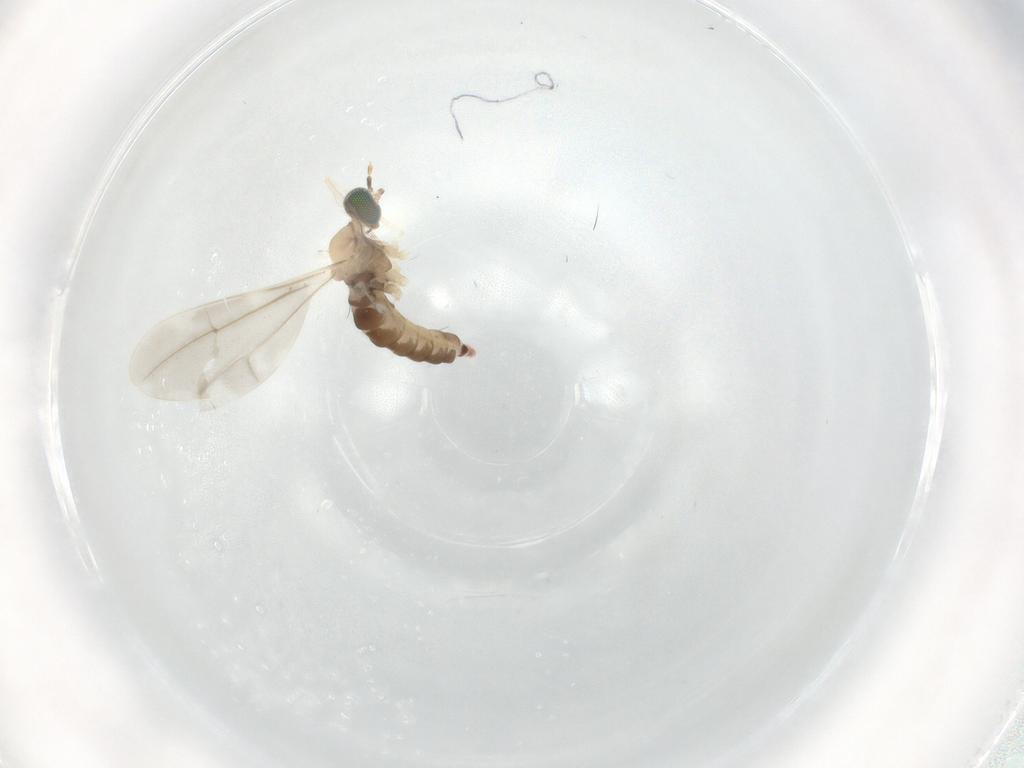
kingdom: Animalia
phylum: Arthropoda
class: Insecta
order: Diptera
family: Cecidomyiidae
